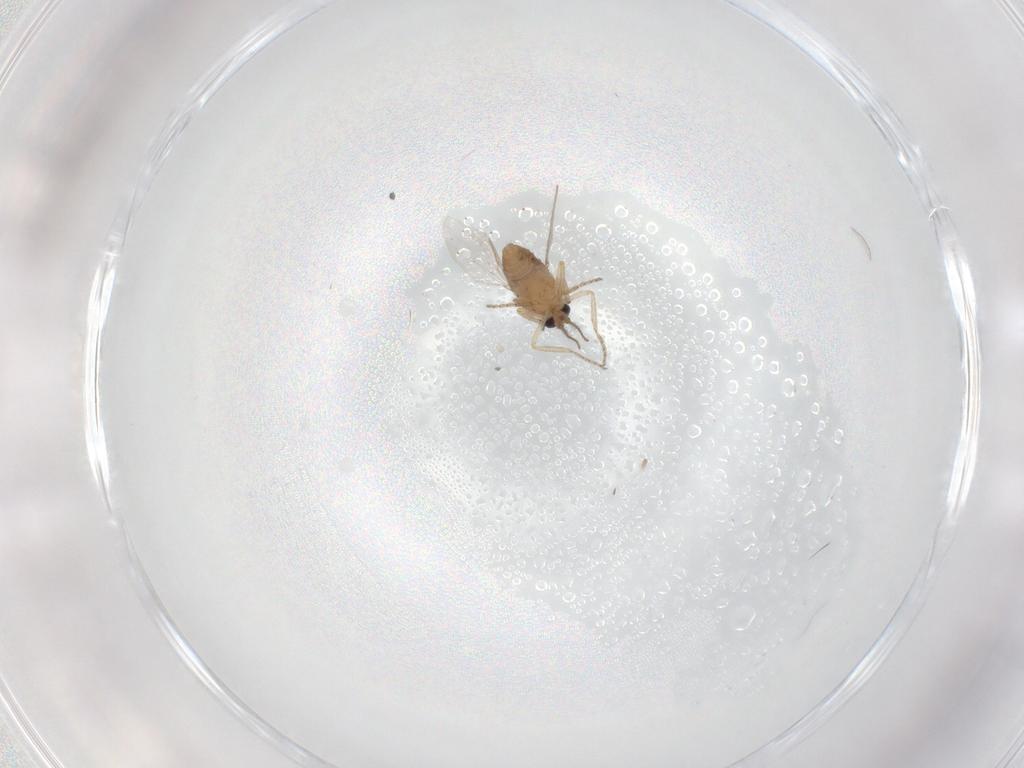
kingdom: Animalia
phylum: Arthropoda
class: Insecta
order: Diptera
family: Ceratopogonidae
